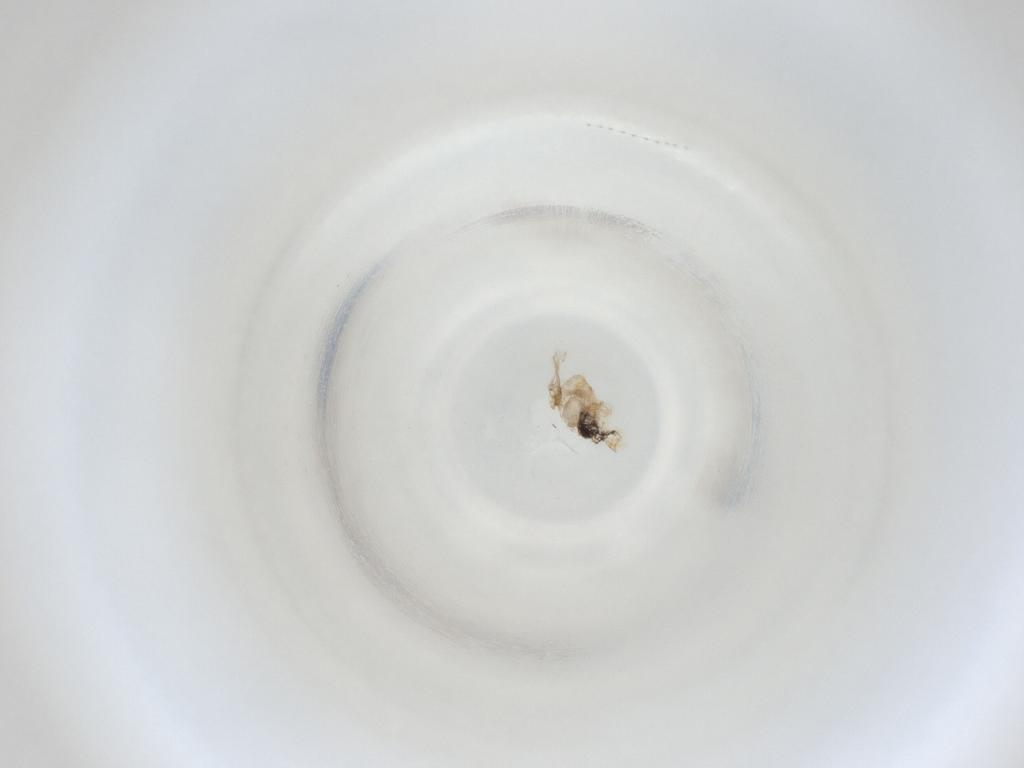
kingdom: Animalia
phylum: Arthropoda
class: Insecta
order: Diptera
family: Cecidomyiidae
